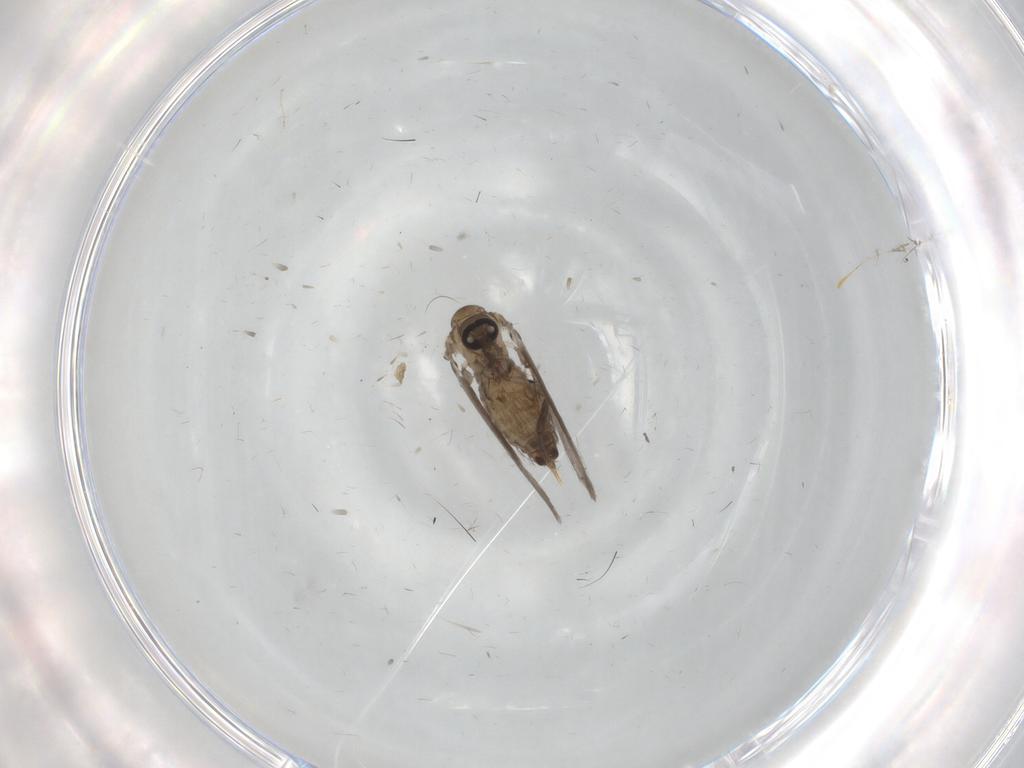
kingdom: Animalia
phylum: Arthropoda
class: Insecta
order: Diptera
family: Psychodidae
